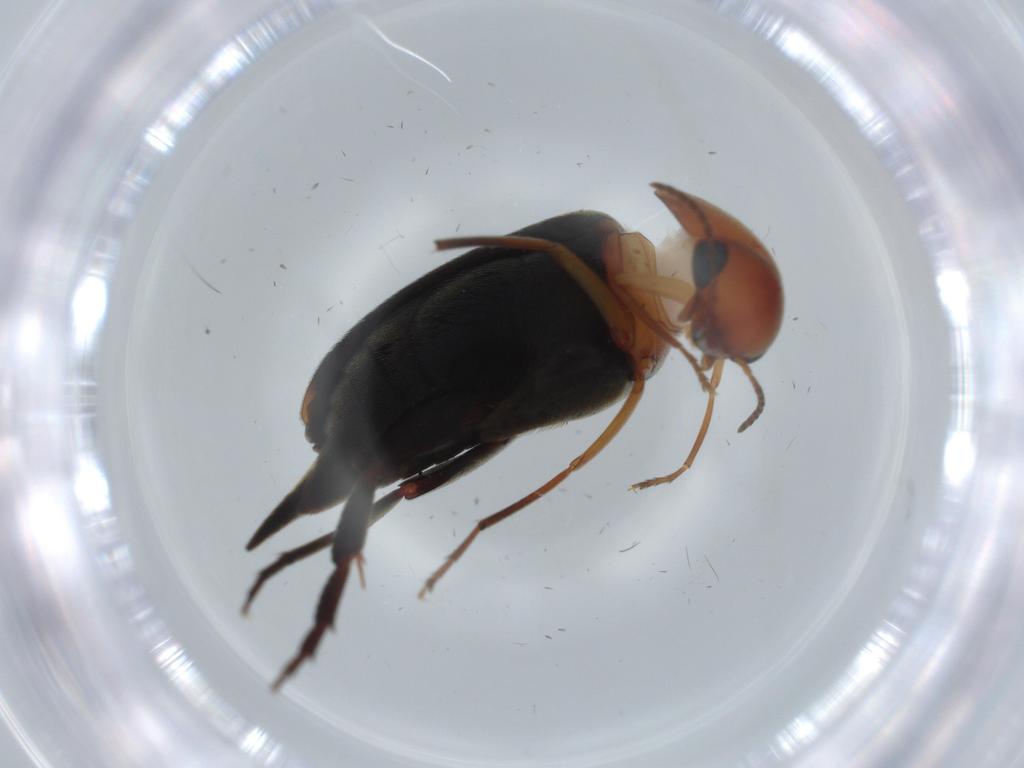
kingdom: Animalia
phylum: Arthropoda
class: Insecta
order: Coleoptera
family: Mordellidae
